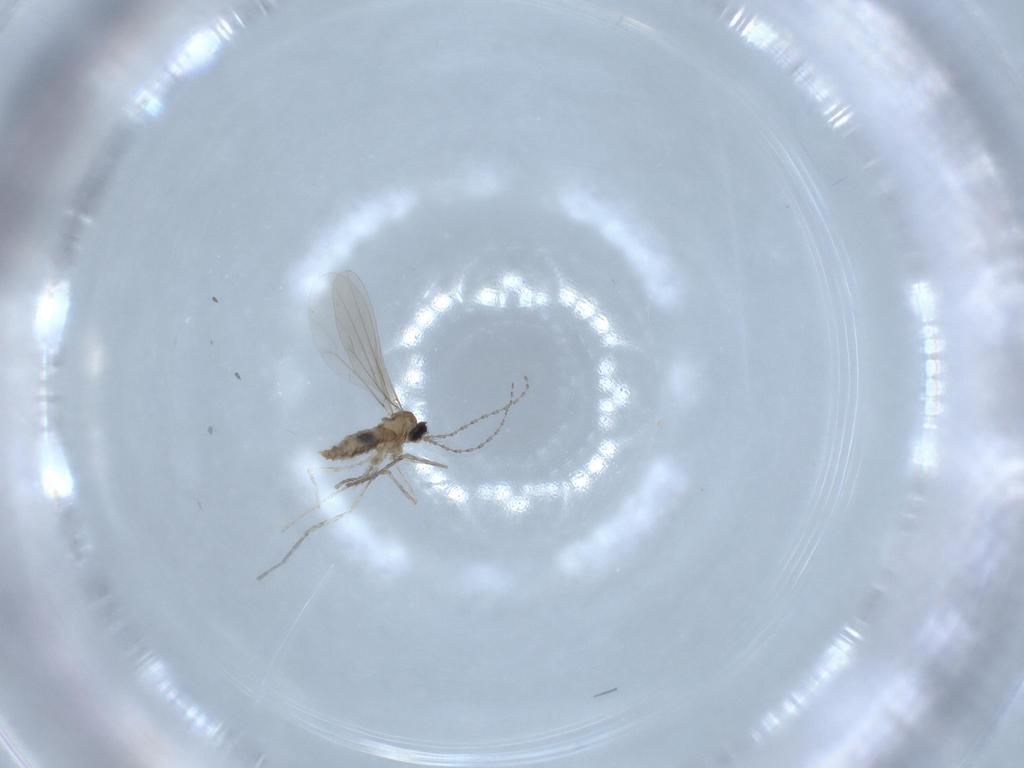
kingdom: Animalia
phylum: Arthropoda
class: Insecta
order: Diptera
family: Cecidomyiidae
